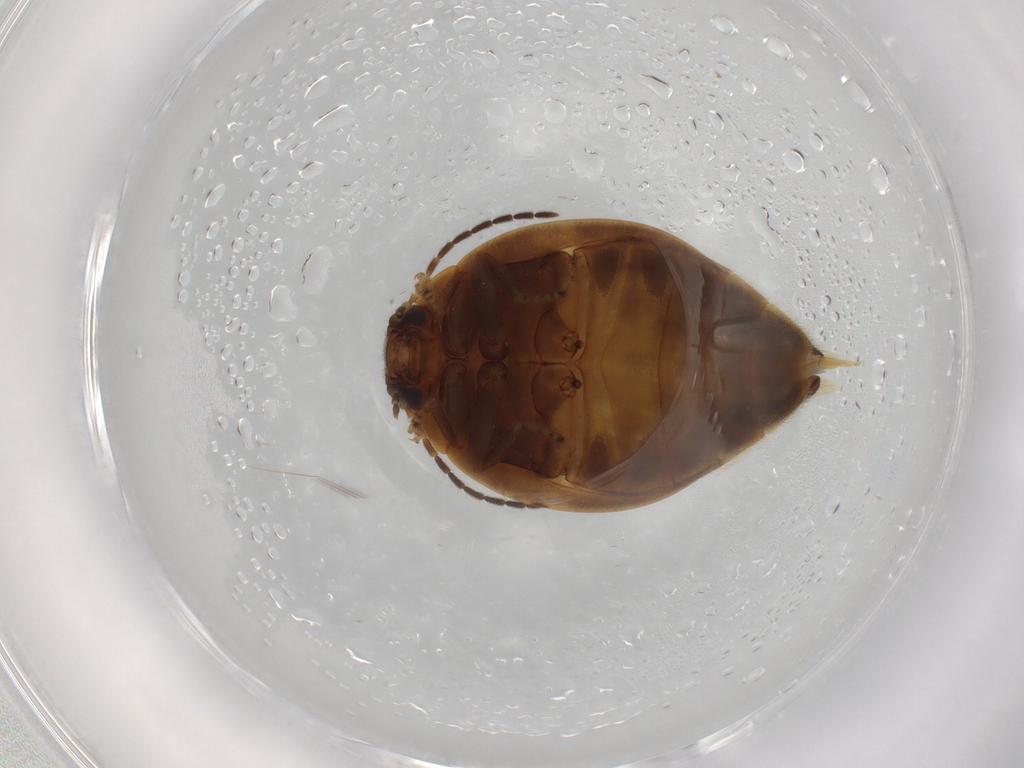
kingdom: Animalia
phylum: Arthropoda
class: Insecta
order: Coleoptera
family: Scirtidae
